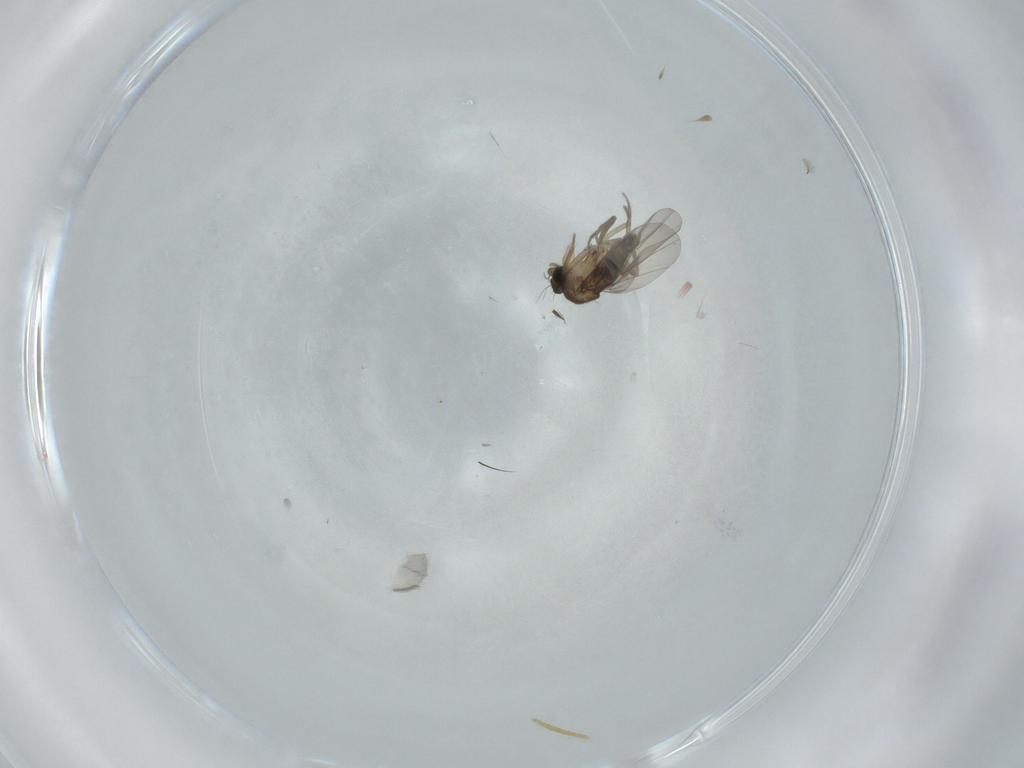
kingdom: Animalia
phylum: Arthropoda
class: Insecta
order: Diptera
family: Phoridae
